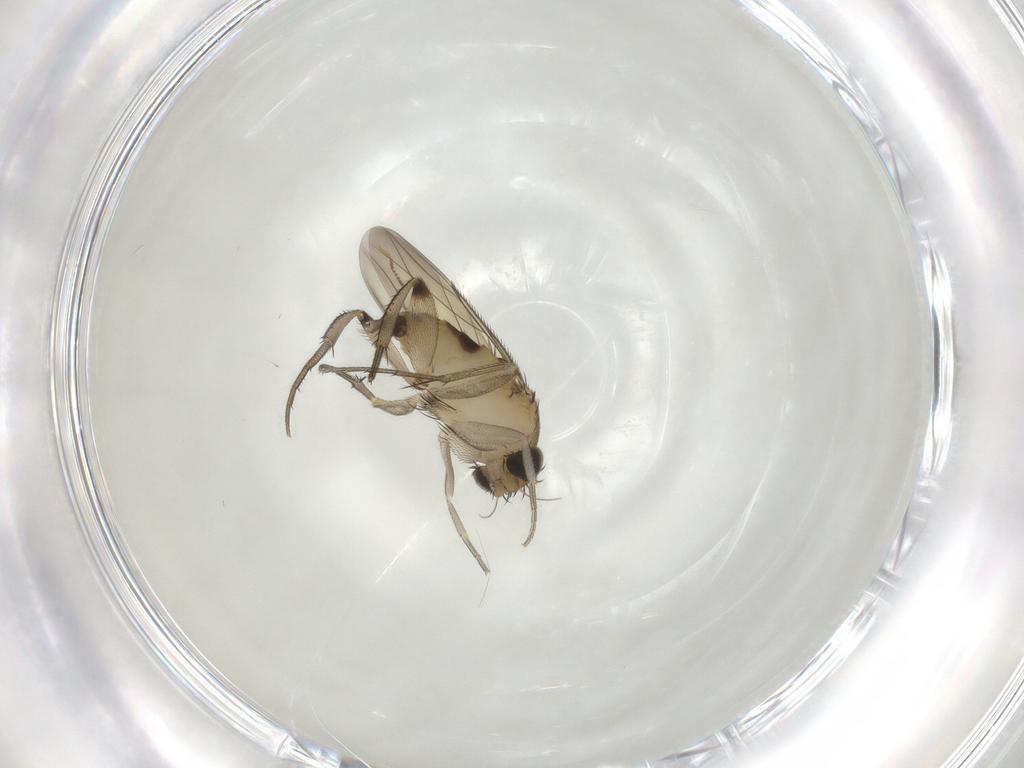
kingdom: Animalia
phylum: Arthropoda
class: Insecta
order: Diptera
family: Phoridae
